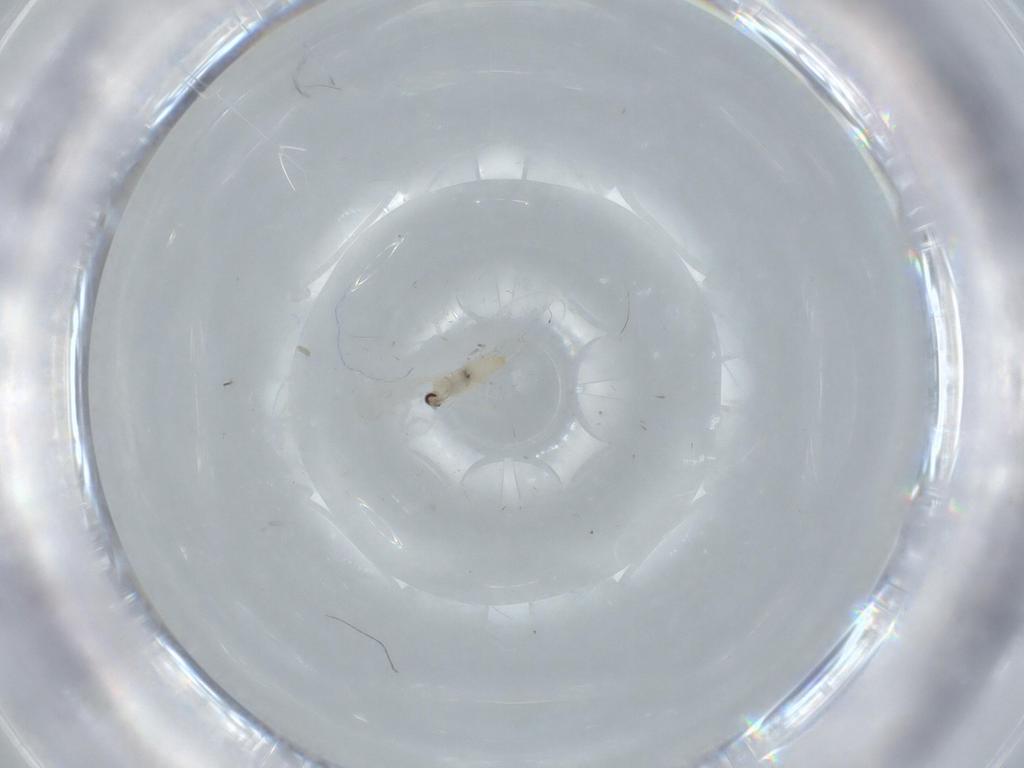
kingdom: Animalia
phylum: Arthropoda
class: Insecta
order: Diptera
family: Cecidomyiidae
